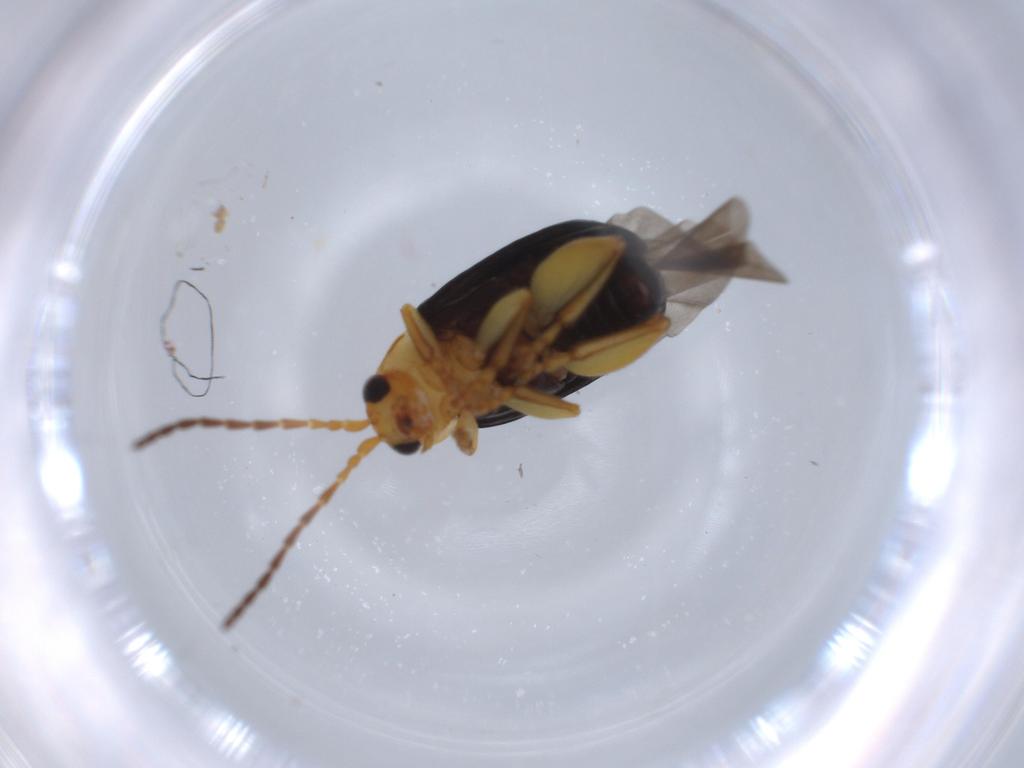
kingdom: Animalia
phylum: Arthropoda
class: Insecta
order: Coleoptera
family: Chrysomelidae
